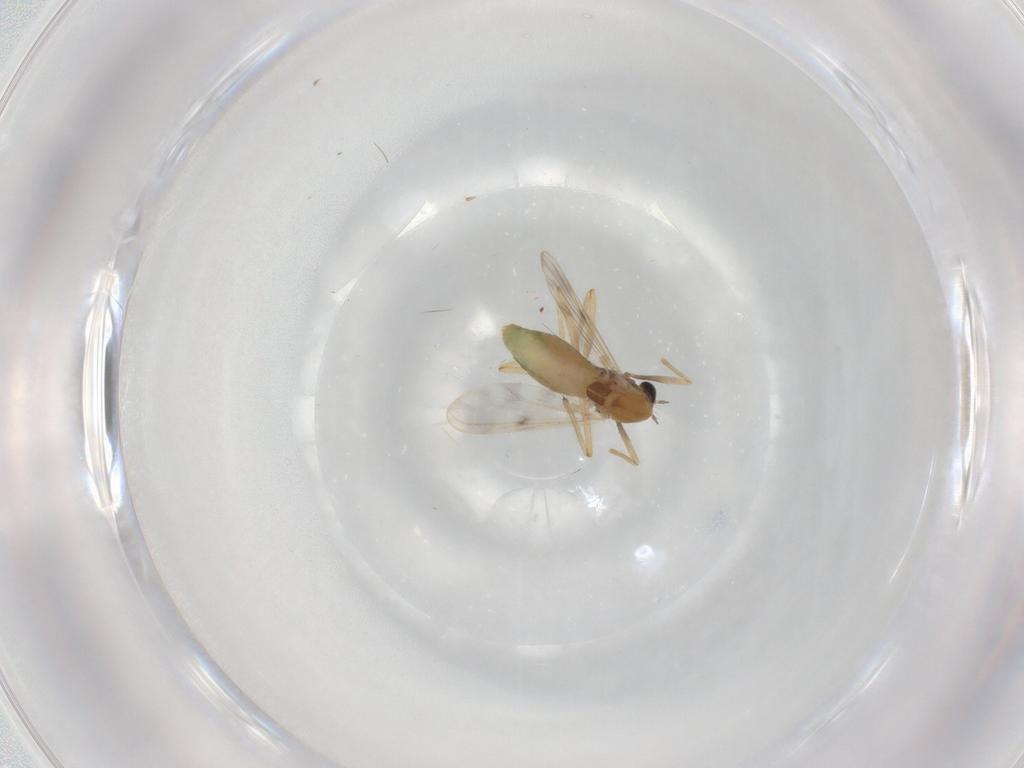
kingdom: Animalia
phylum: Arthropoda
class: Insecta
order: Diptera
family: Chironomidae
